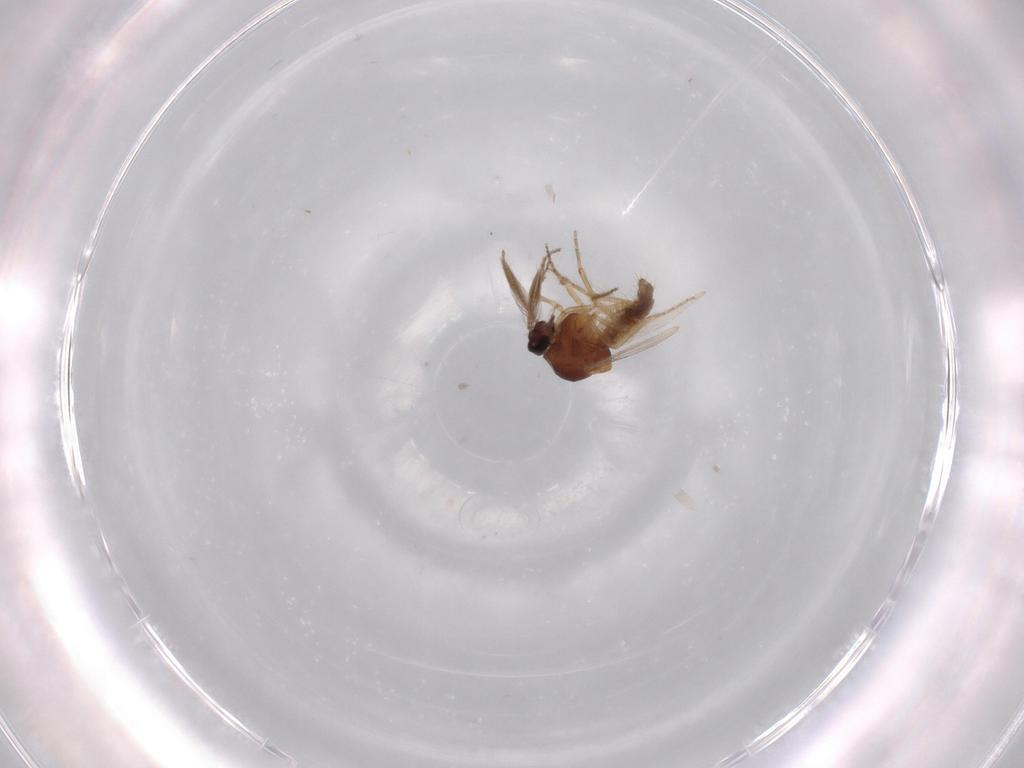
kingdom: Animalia
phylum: Arthropoda
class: Insecta
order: Diptera
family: Ceratopogonidae
